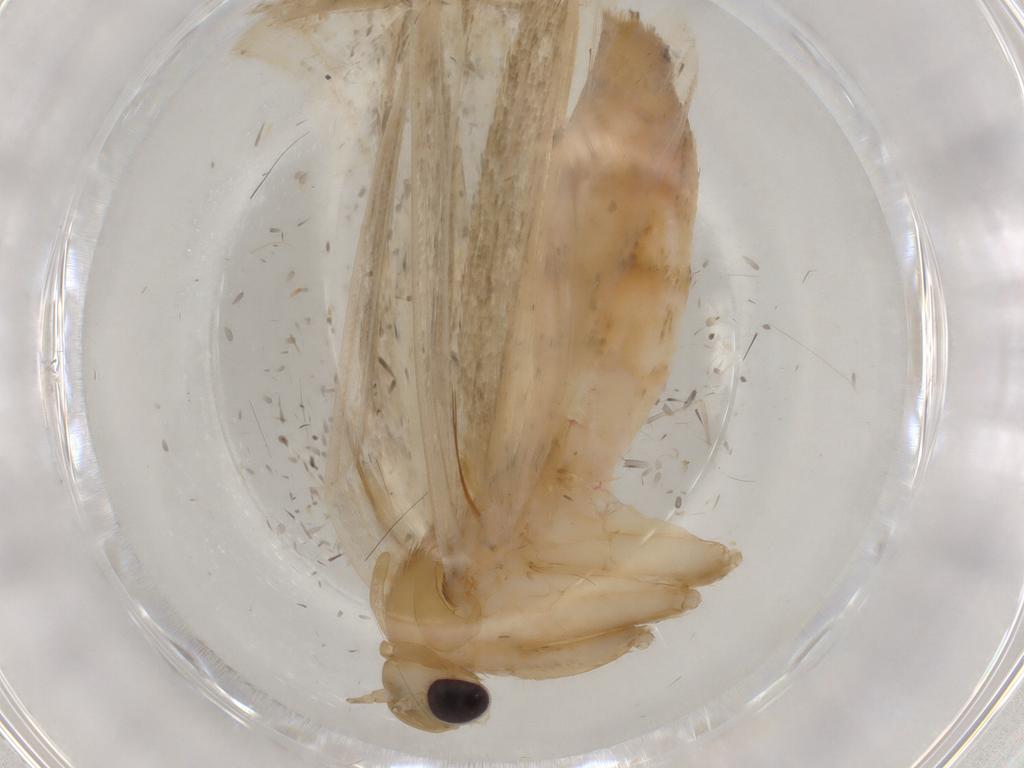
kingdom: Animalia
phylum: Arthropoda
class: Insecta
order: Lepidoptera
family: Noctuidae
